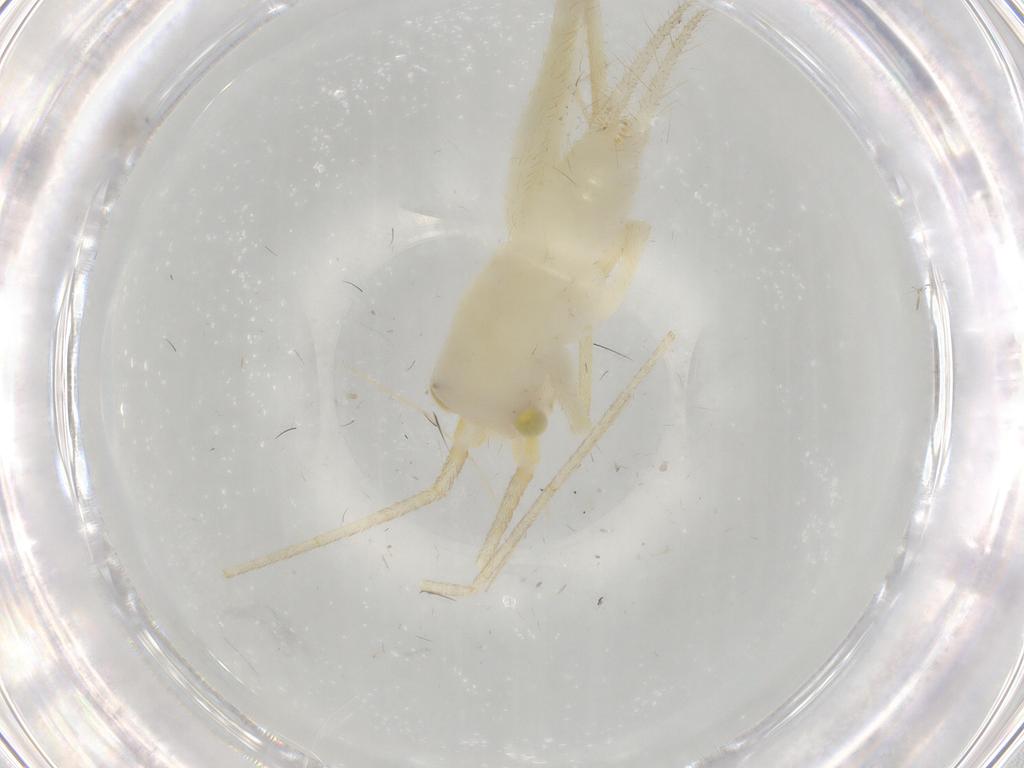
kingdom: Animalia
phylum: Arthropoda
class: Insecta
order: Orthoptera
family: Trigonidiidae
